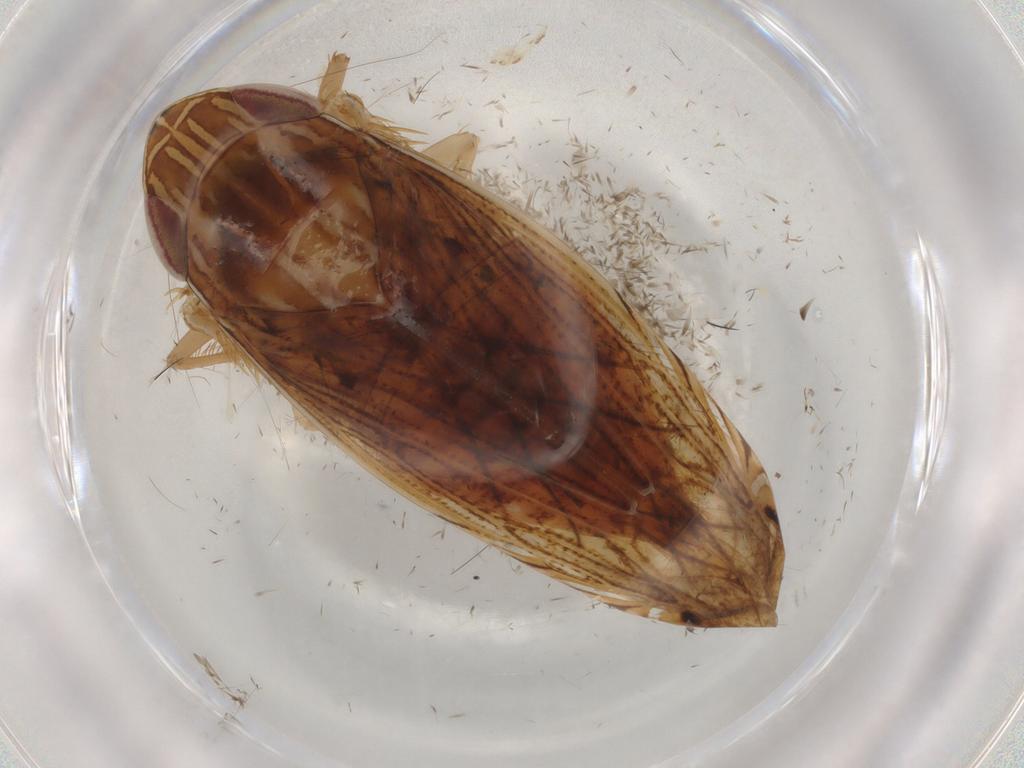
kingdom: Animalia
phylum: Arthropoda
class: Insecta
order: Hemiptera
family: Cicadellidae
